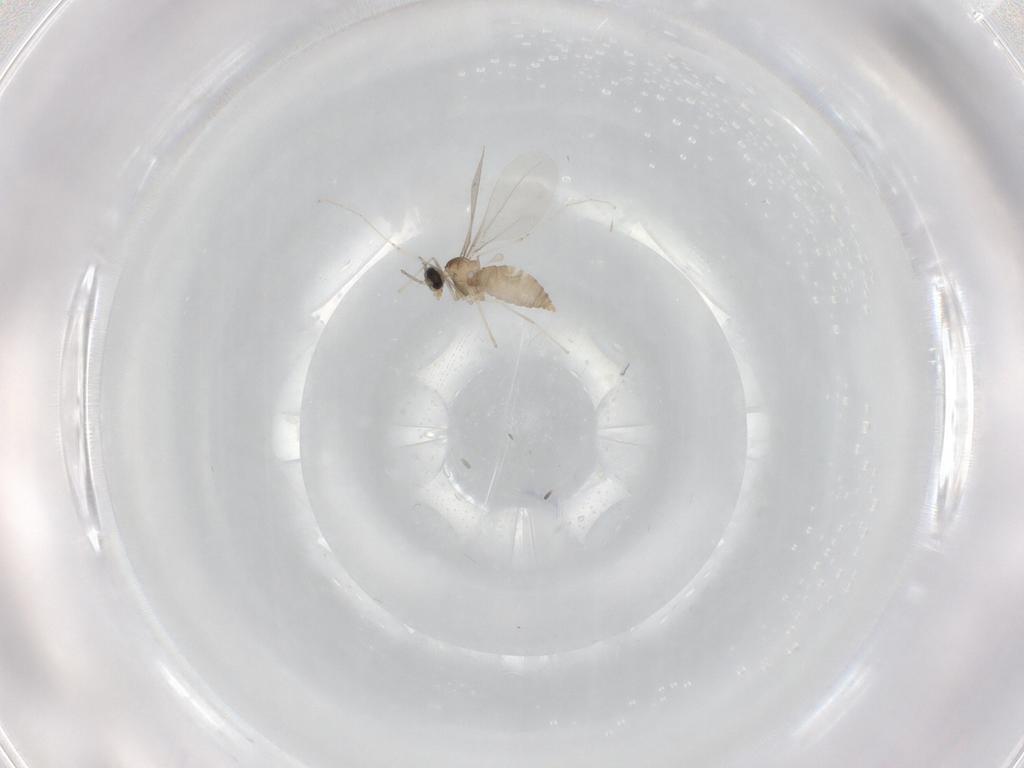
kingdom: Animalia
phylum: Arthropoda
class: Insecta
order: Diptera
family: Cecidomyiidae
